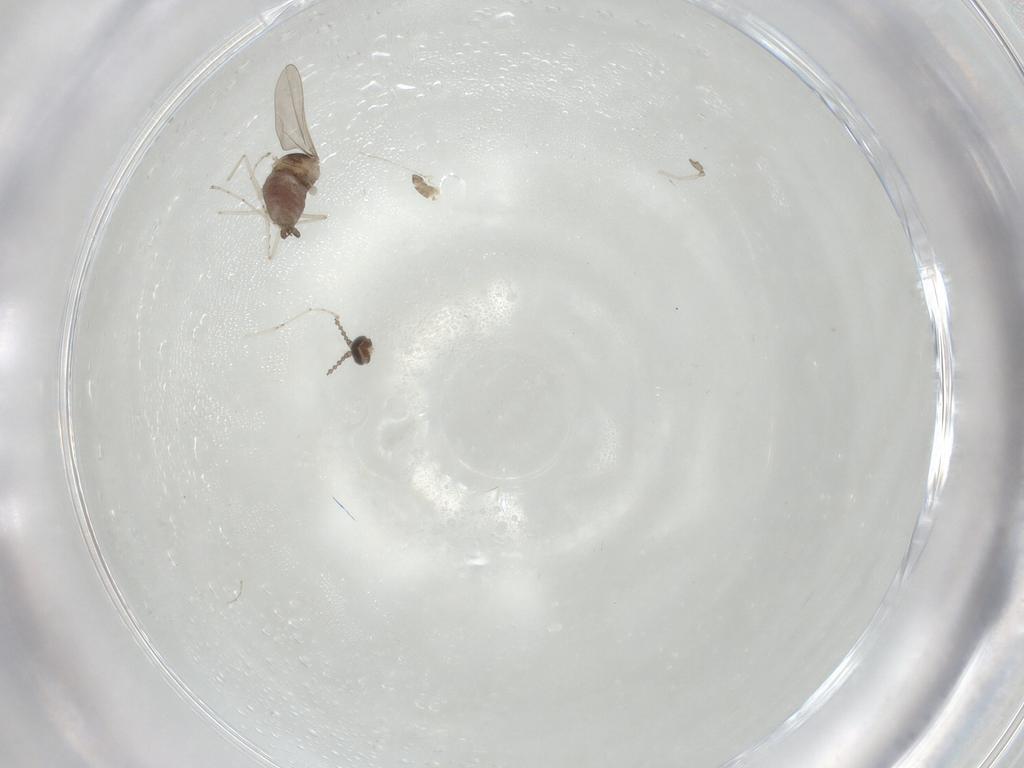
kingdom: Animalia
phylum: Arthropoda
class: Insecta
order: Diptera
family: Cecidomyiidae
